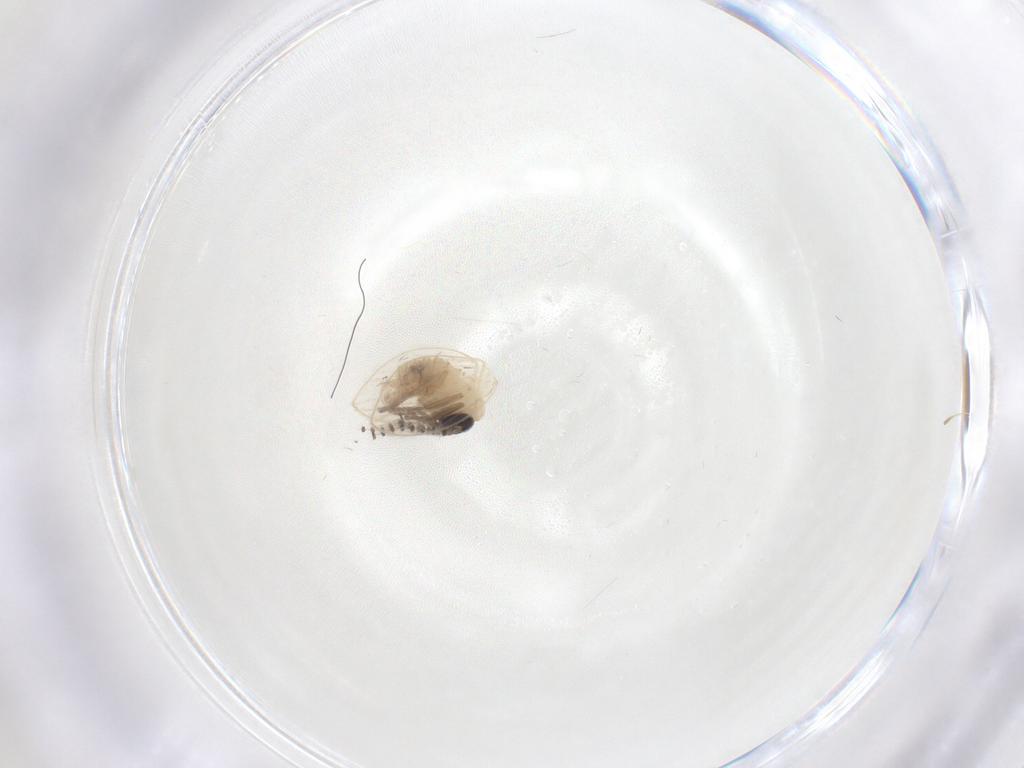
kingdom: Animalia
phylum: Arthropoda
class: Insecta
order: Diptera
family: Psychodidae
